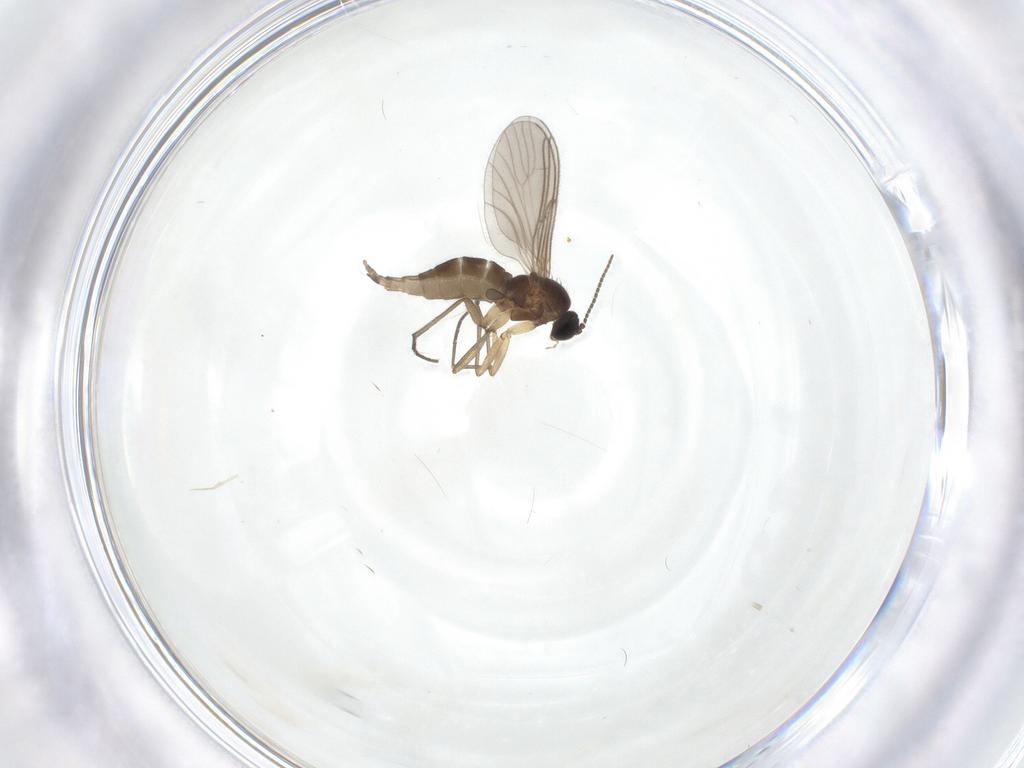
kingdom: Animalia
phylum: Arthropoda
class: Insecta
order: Diptera
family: Sciaridae
